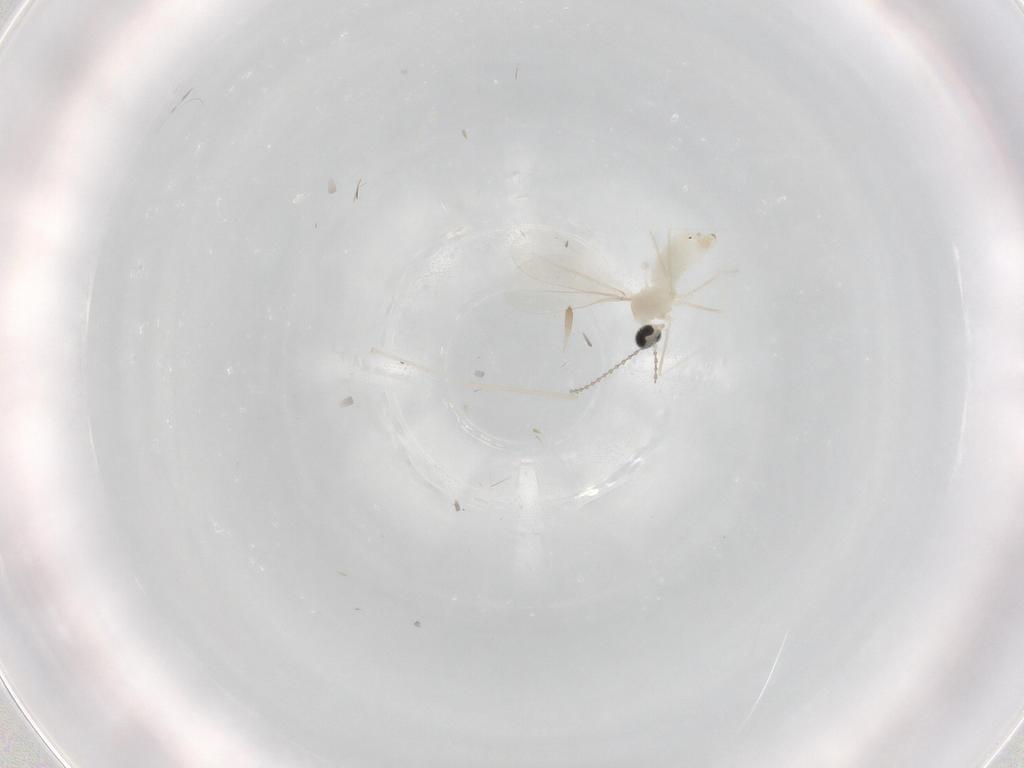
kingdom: Animalia
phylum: Arthropoda
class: Insecta
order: Diptera
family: Cecidomyiidae
